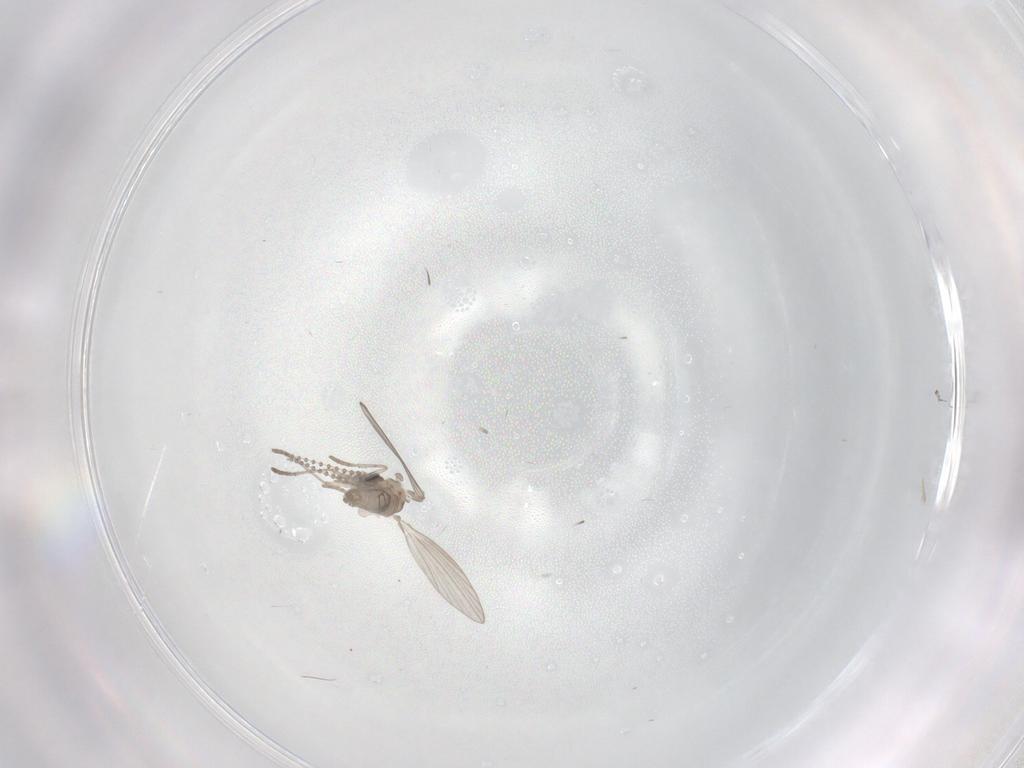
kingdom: Animalia
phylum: Arthropoda
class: Insecta
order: Diptera
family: Psychodidae
